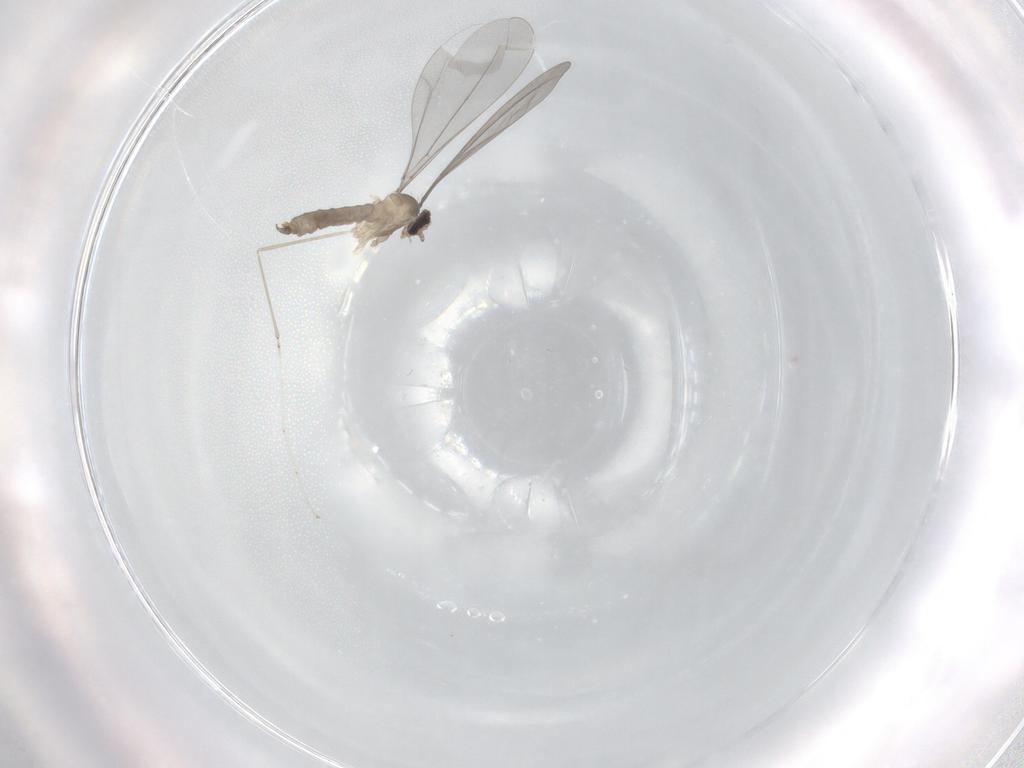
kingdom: Animalia
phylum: Arthropoda
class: Insecta
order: Diptera
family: Cecidomyiidae
